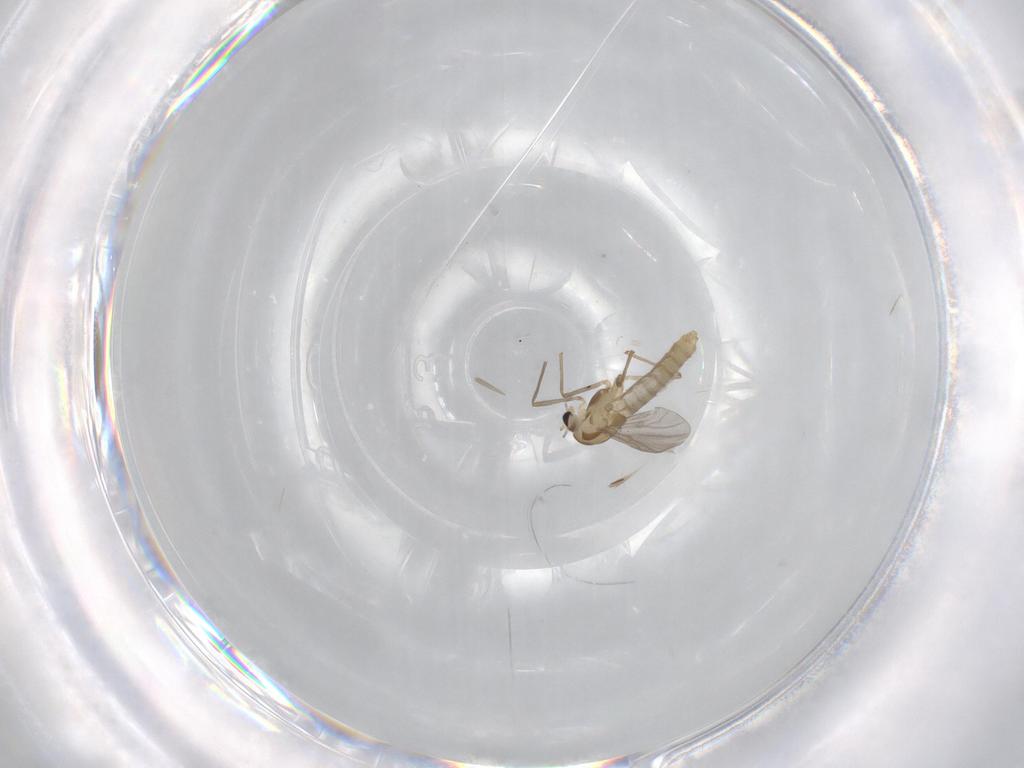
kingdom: Animalia
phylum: Arthropoda
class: Insecta
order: Diptera
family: Chironomidae
